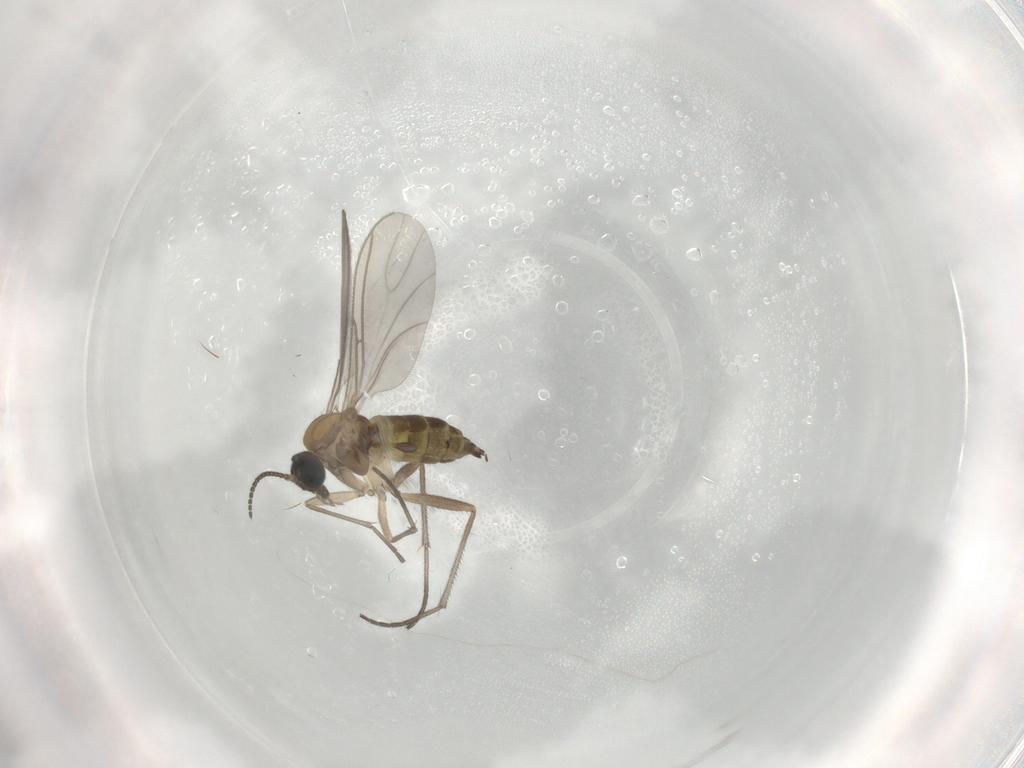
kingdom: Animalia
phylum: Arthropoda
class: Insecta
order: Diptera
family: Sciaridae
